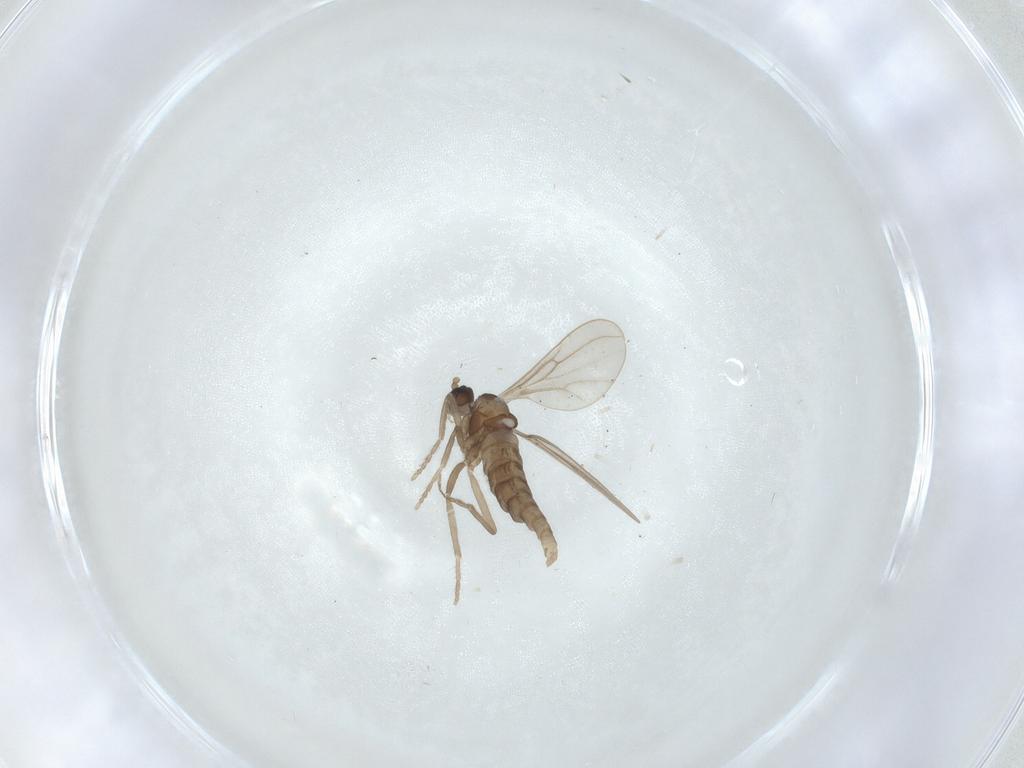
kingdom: Animalia
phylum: Arthropoda
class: Insecta
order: Diptera
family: Cecidomyiidae
